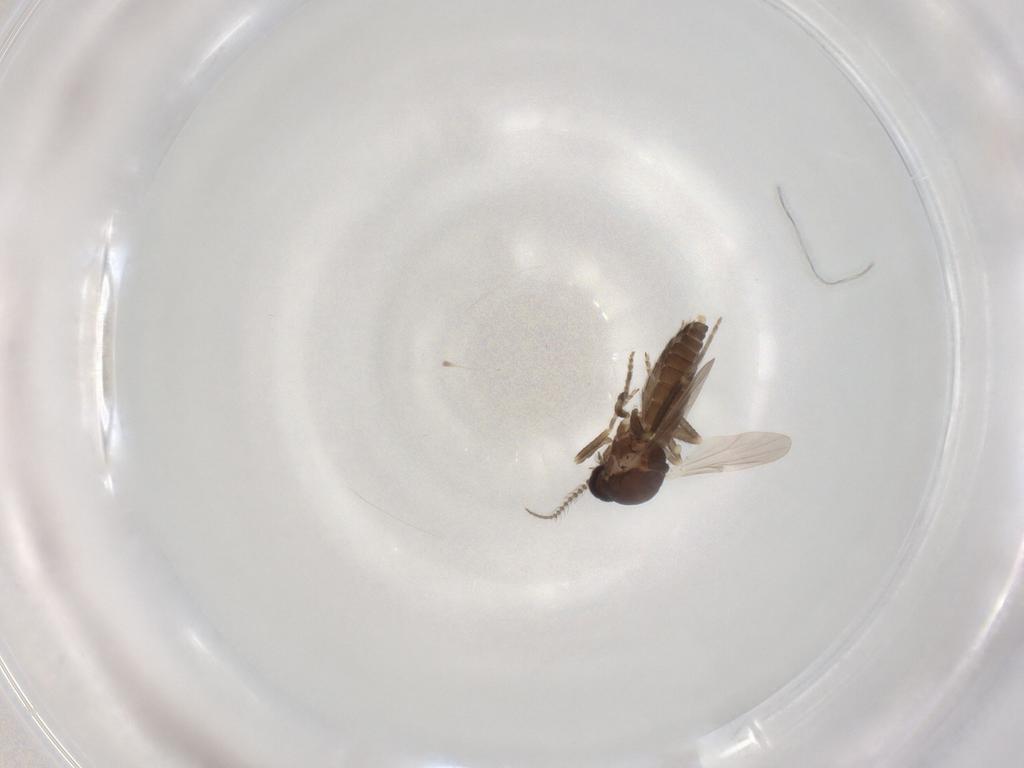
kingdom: Animalia
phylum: Arthropoda
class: Insecta
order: Diptera
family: Ceratopogonidae
